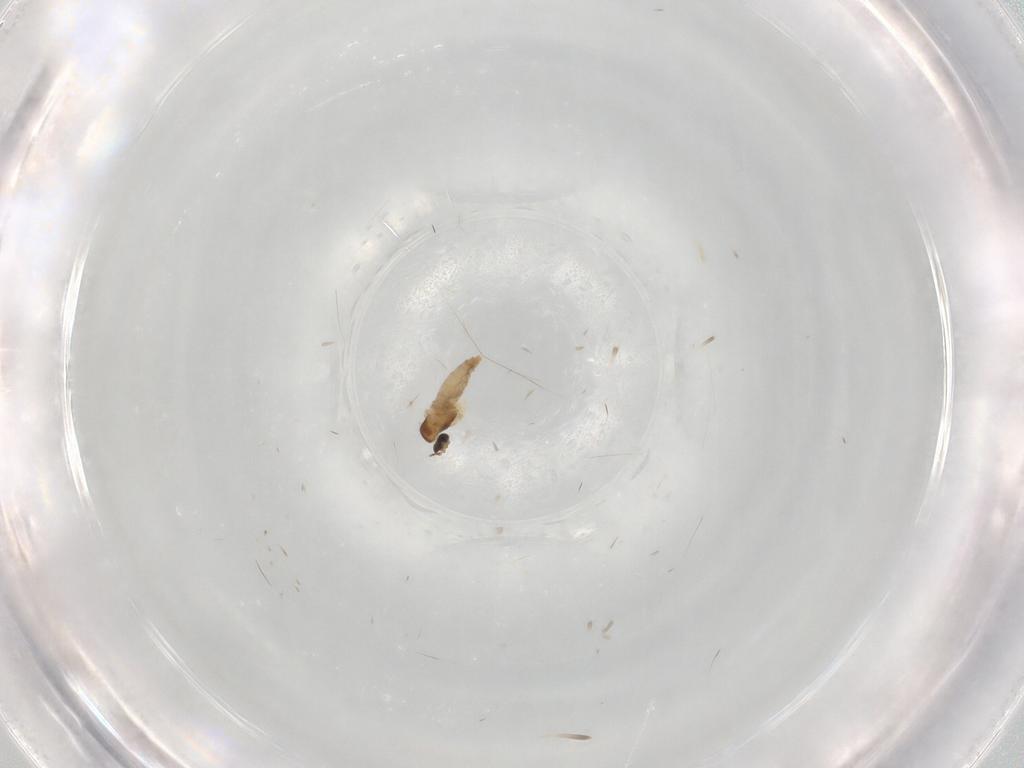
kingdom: Animalia
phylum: Arthropoda
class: Insecta
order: Diptera
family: Ceratopogonidae
